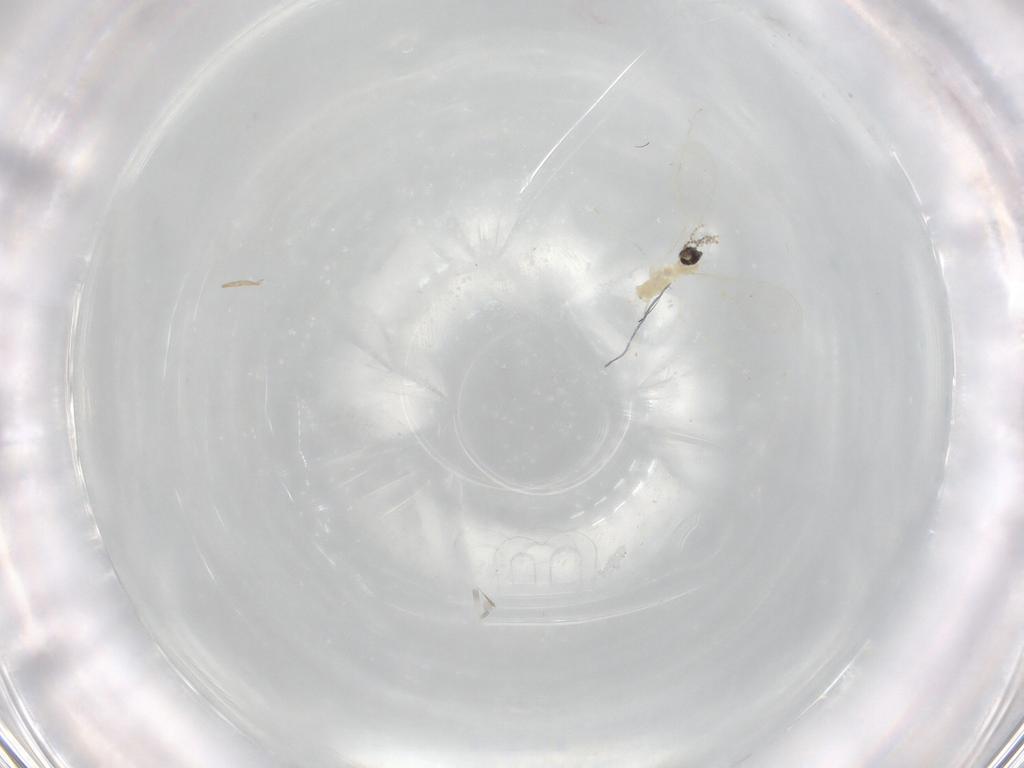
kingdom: Animalia
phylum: Arthropoda
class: Insecta
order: Diptera
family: Cecidomyiidae
